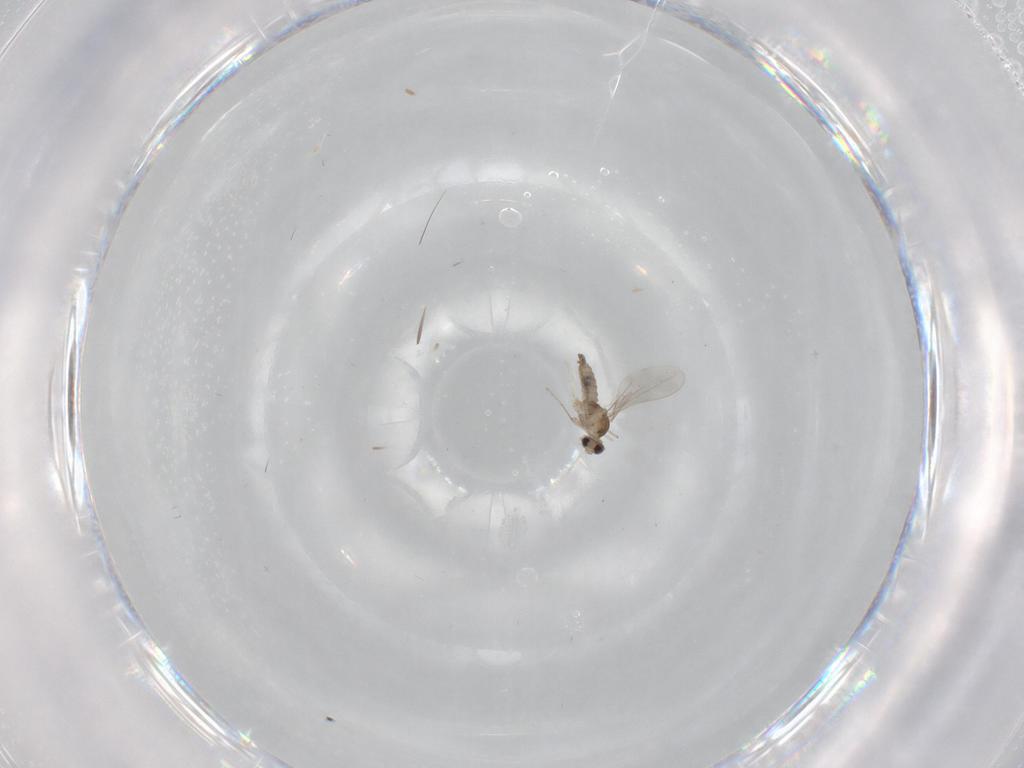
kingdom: Animalia
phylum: Arthropoda
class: Insecta
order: Diptera
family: Cecidomyiidae
